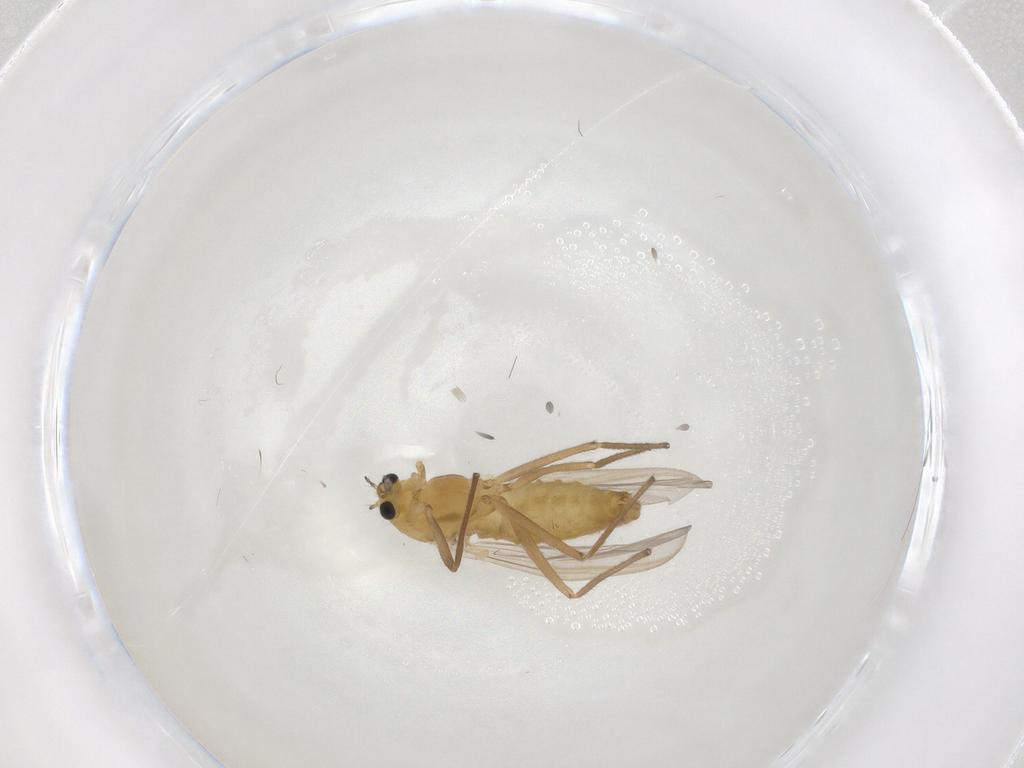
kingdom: Animalia
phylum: Arthropoda
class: Insecta
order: Diptera
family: Chironomidae
